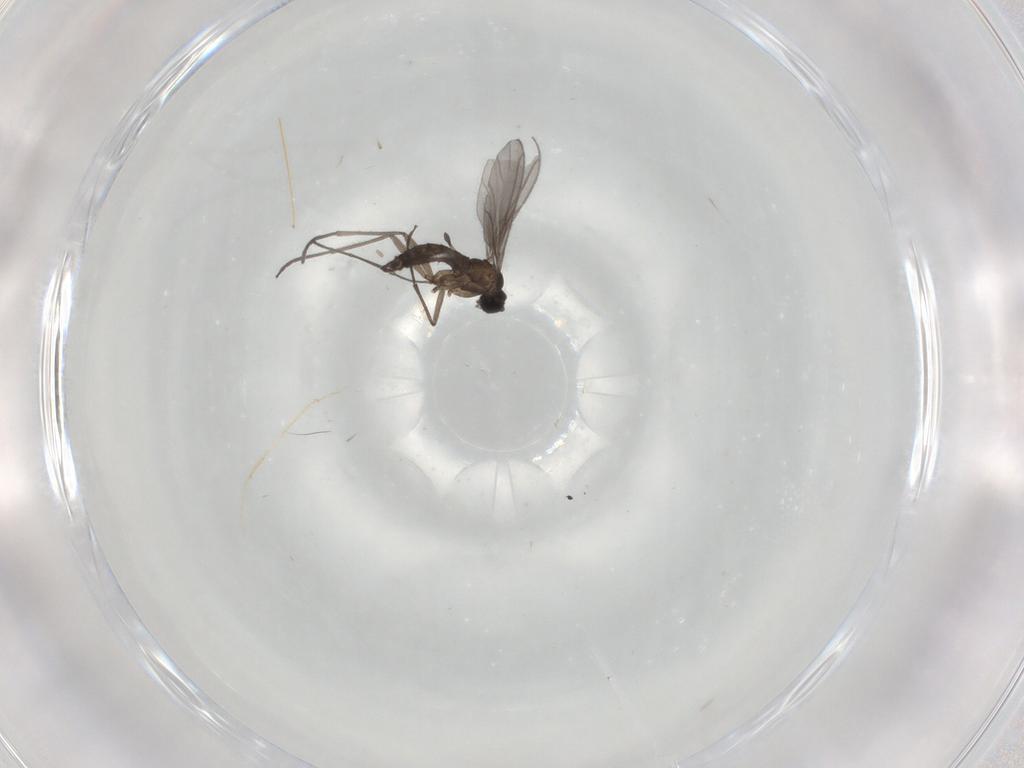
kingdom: Animalia
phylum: Arthropoda
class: Insecta
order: Diptera
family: Sciaridae
